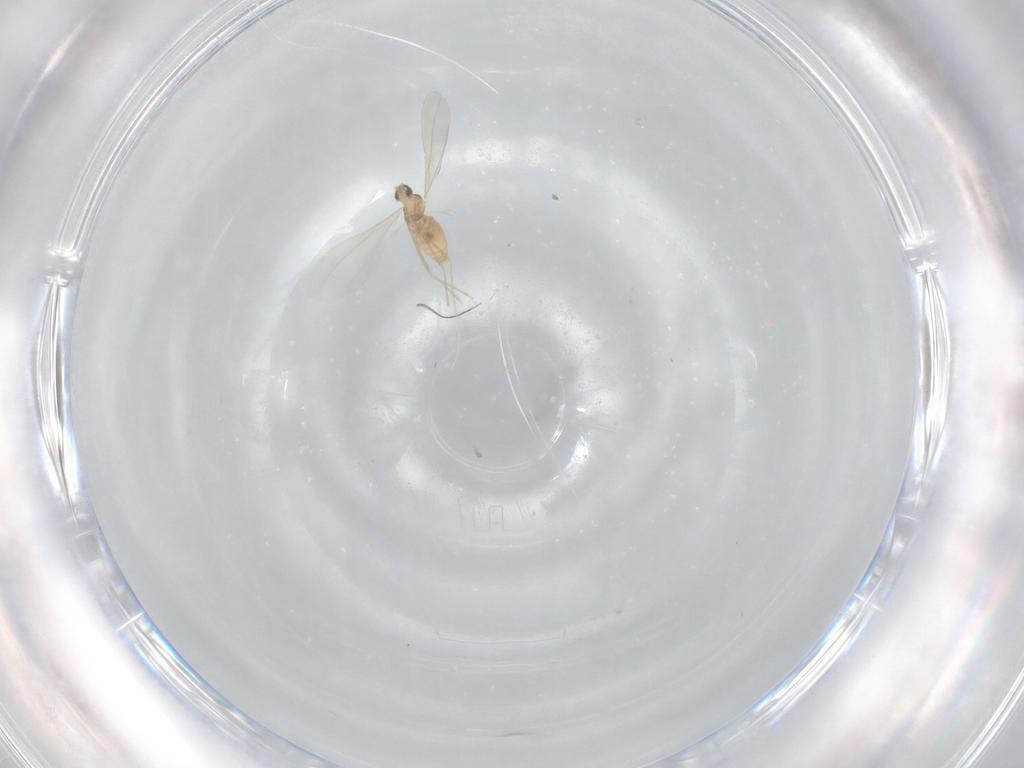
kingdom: Animalia
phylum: Arthropoda
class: Insecta
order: Diptera
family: Cecidomyiidae
